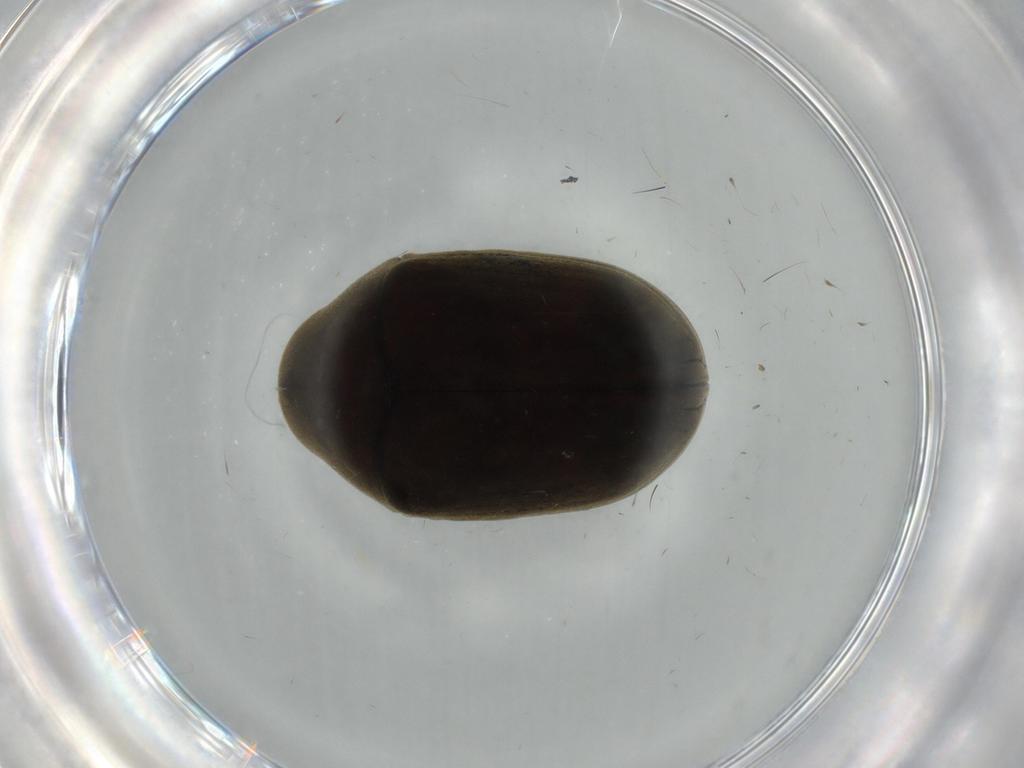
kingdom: Animalia
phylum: Arthropoda
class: Insecta
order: Coleoptera
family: Ptinidae
